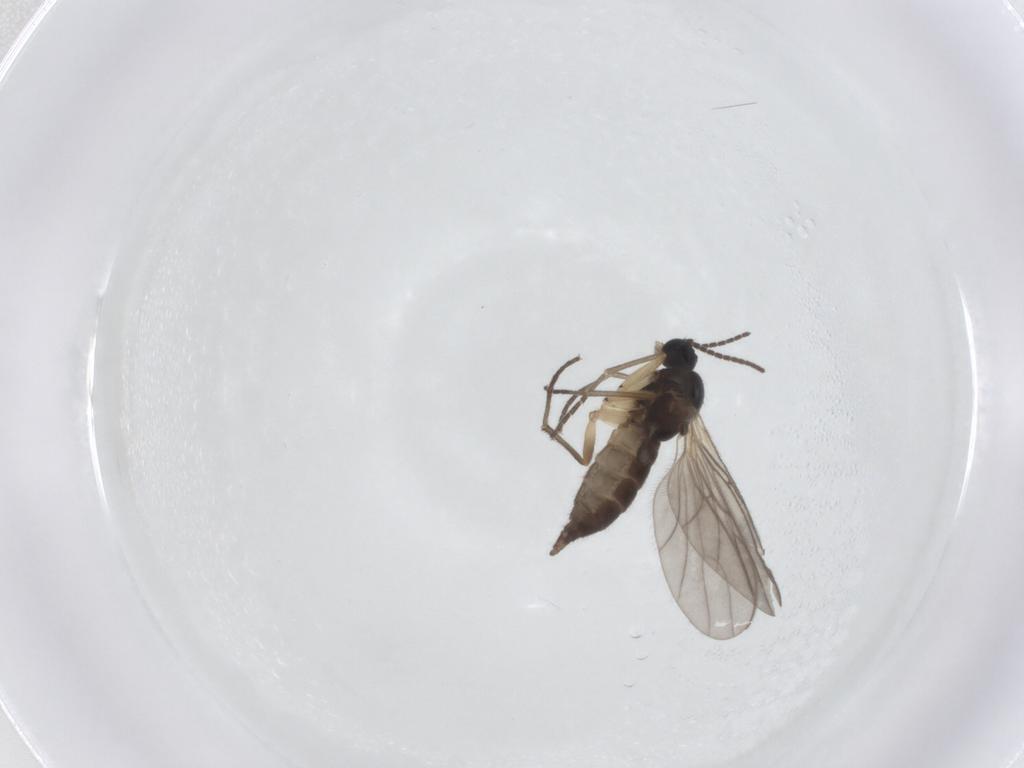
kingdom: Animalia
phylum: Arthropoda
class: Insecta
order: Diptera
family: Sciaridae
